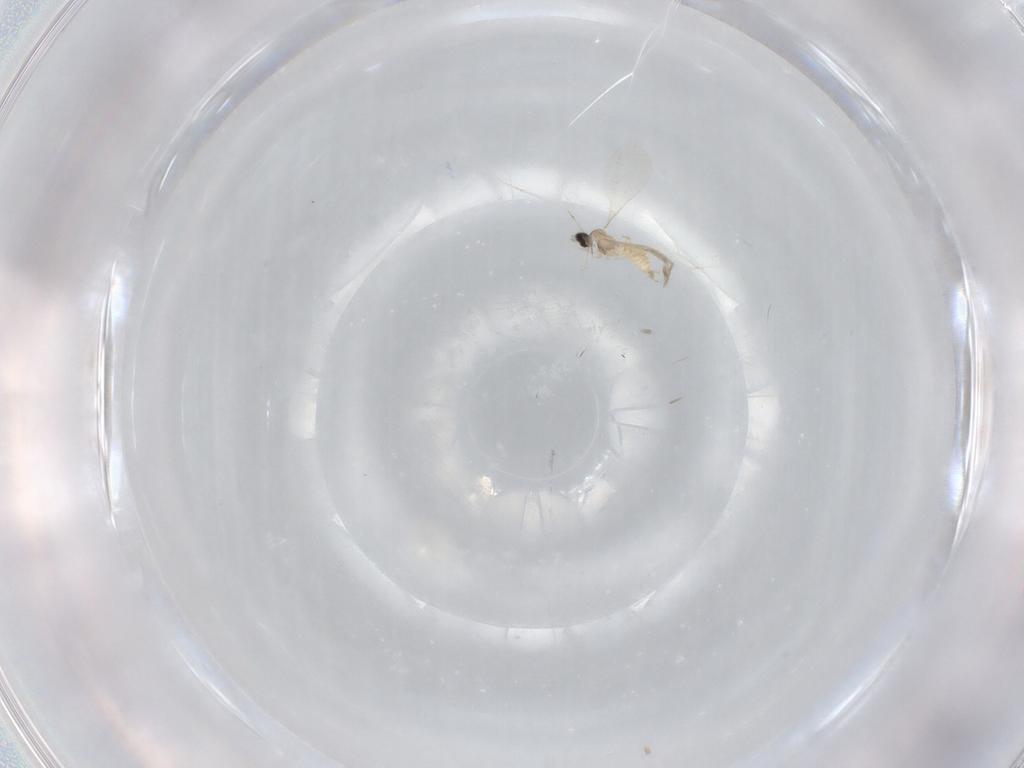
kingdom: Animalia
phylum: Arthropoda
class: Insecta
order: Diptera
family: Cecidomyiidae
